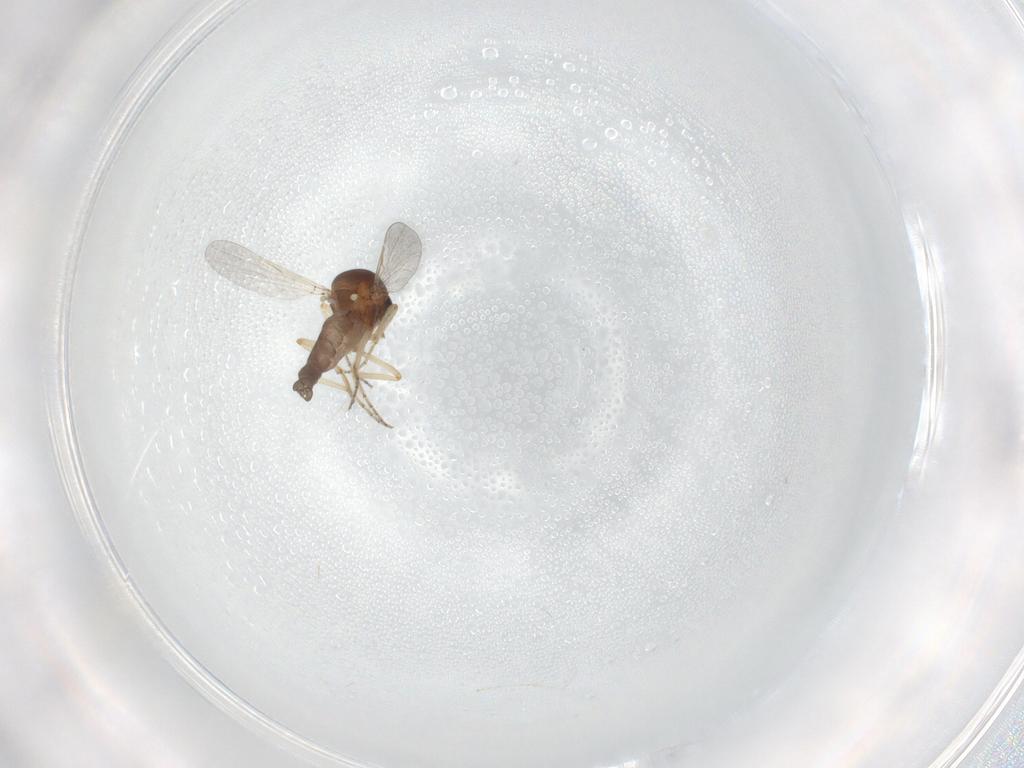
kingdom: Animalia
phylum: Arthropoda
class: Insecta
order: Diptera
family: Ceratopogonidae
